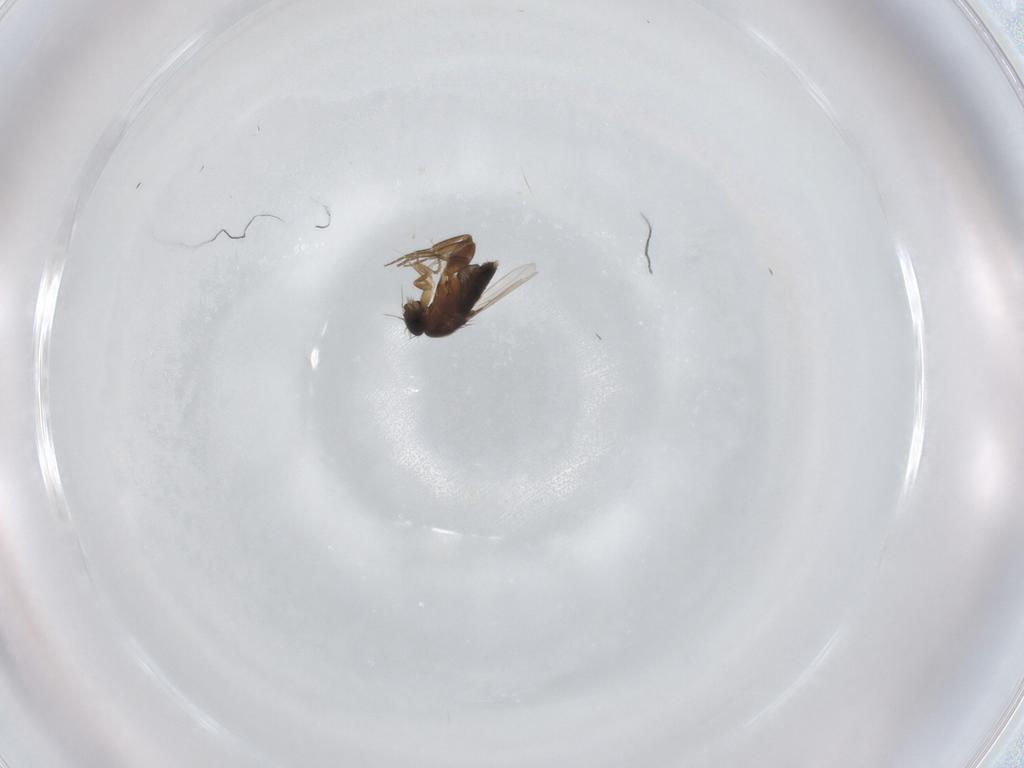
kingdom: Animalia
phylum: Arthropoda
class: Insecta
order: Diptera
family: Phoridae
